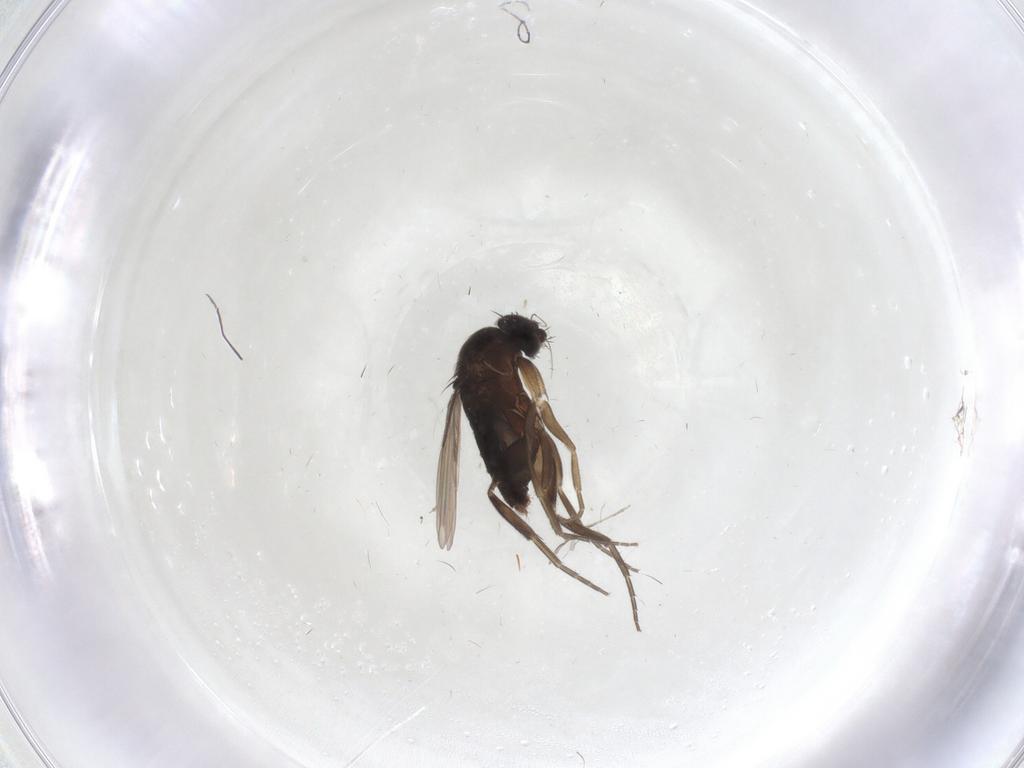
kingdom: Animalia
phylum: Arthropoda
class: Insecta
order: Diptera
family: Phoridae
